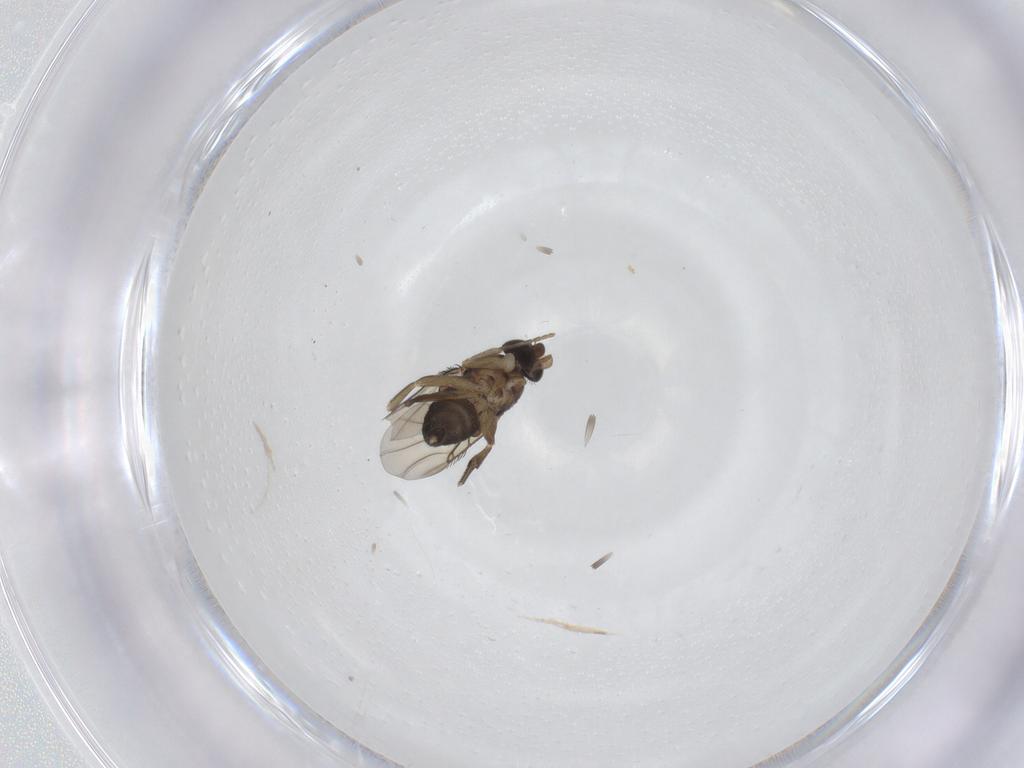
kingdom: Animalia
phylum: Arthropoda
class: Insecta
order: Diptera
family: Phoridae
